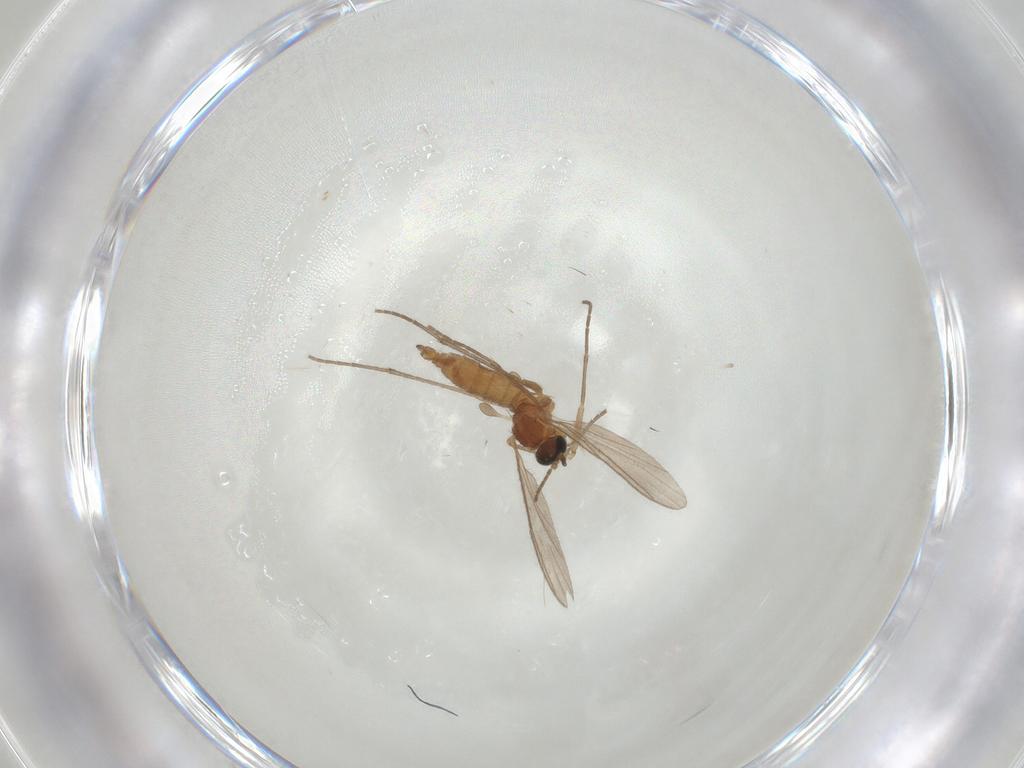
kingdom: Animalia
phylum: Arthropoda
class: Insecta
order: Diptera
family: Sciaridae
